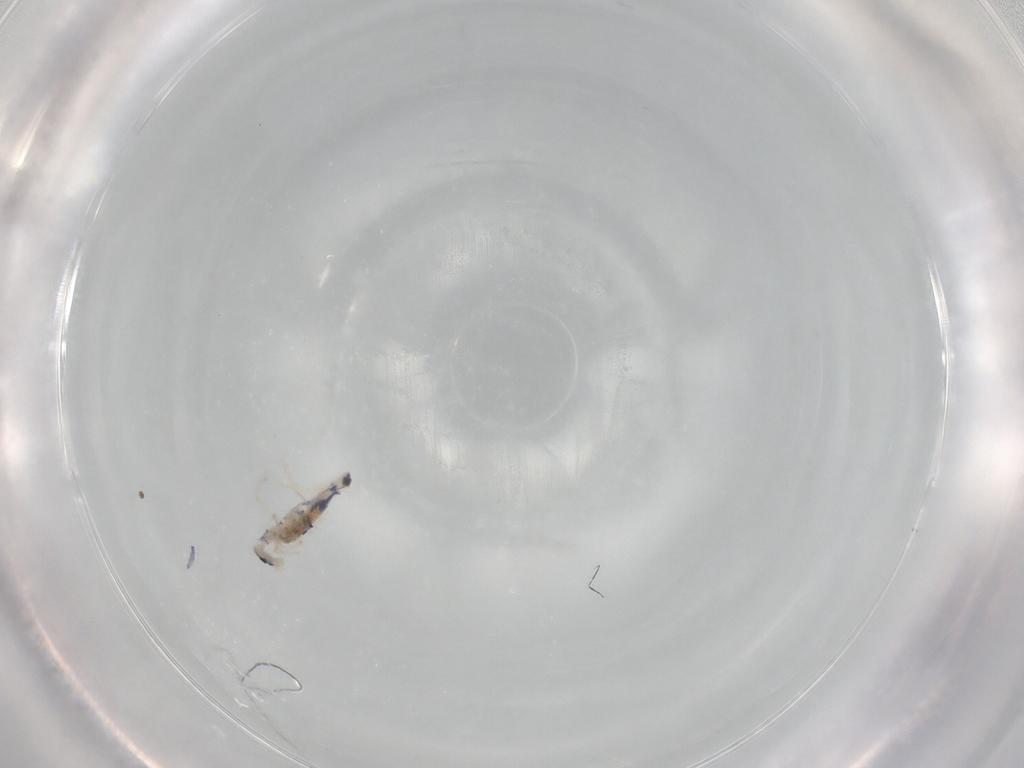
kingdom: Animalia
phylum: Arthropoda
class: Collembola
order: Entomobryomorpha
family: Entomobryidae
